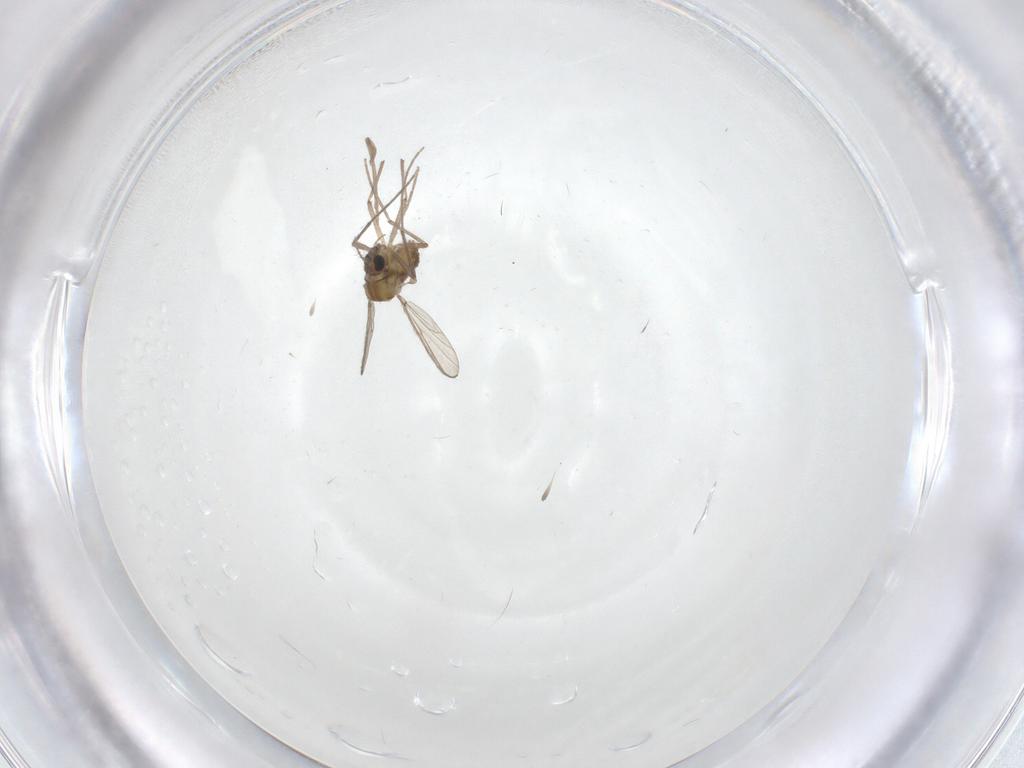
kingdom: Animalia
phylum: Arthropoda
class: Insecta
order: Diptera
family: Chironomidae
